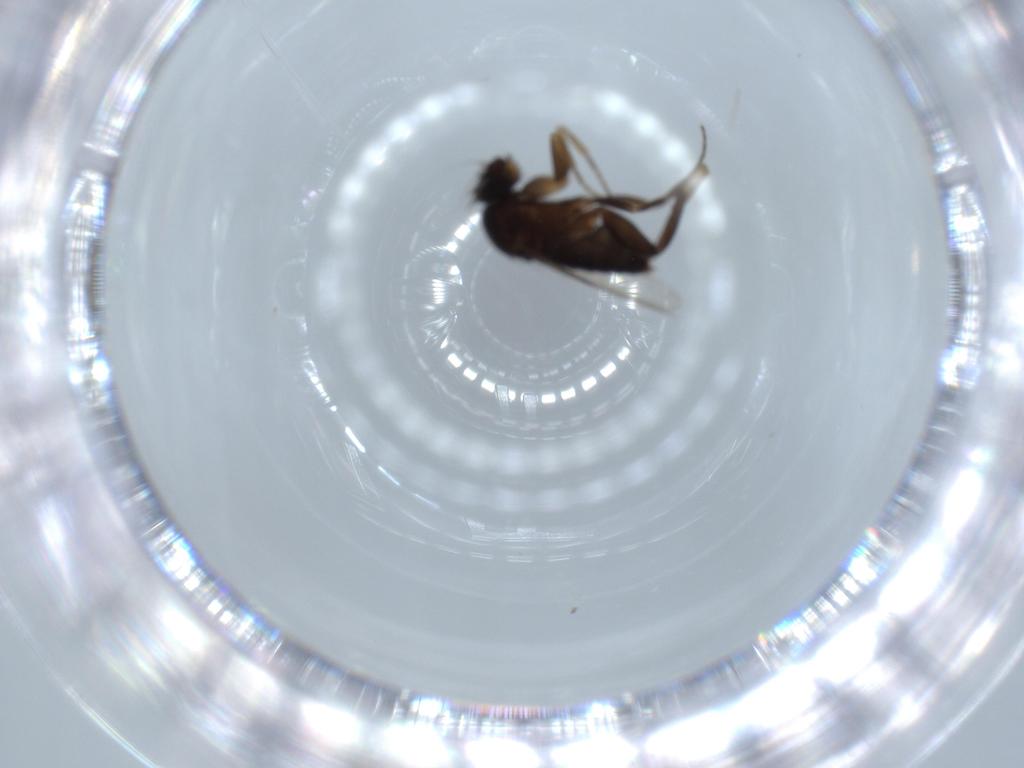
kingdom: Animalia
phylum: Arthropoda
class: Insecta
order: Diptera
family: Phoridae
